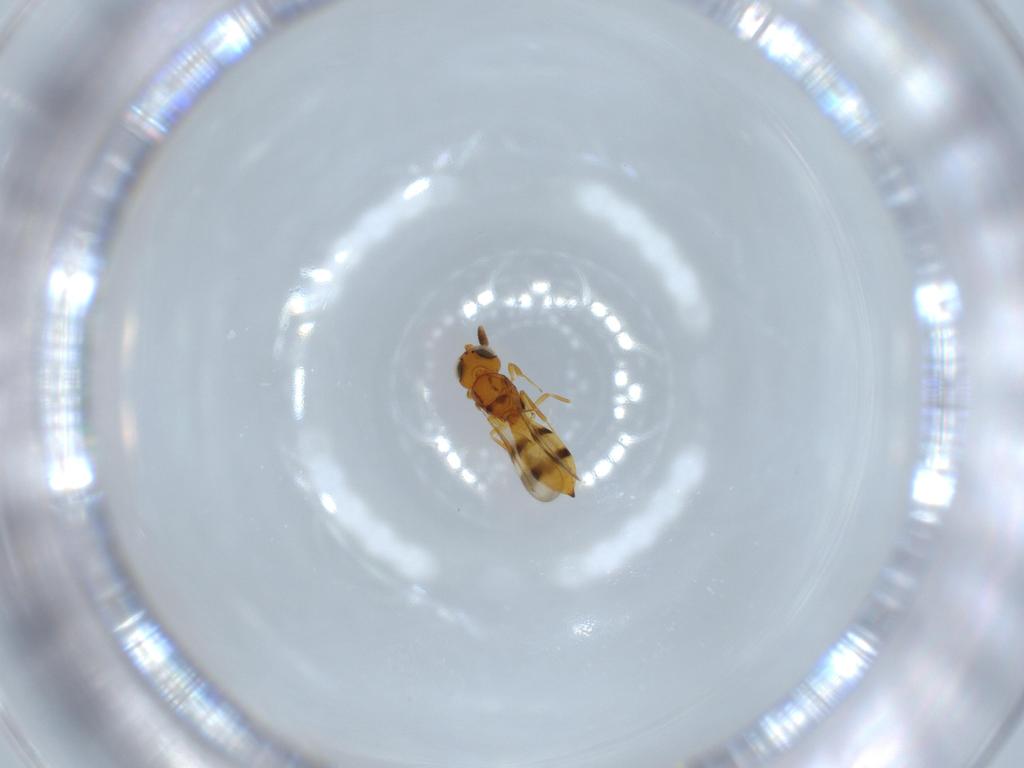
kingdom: Animalia
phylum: Arthropoda
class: Insecta
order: Hymenoptera
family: Scelionidae
